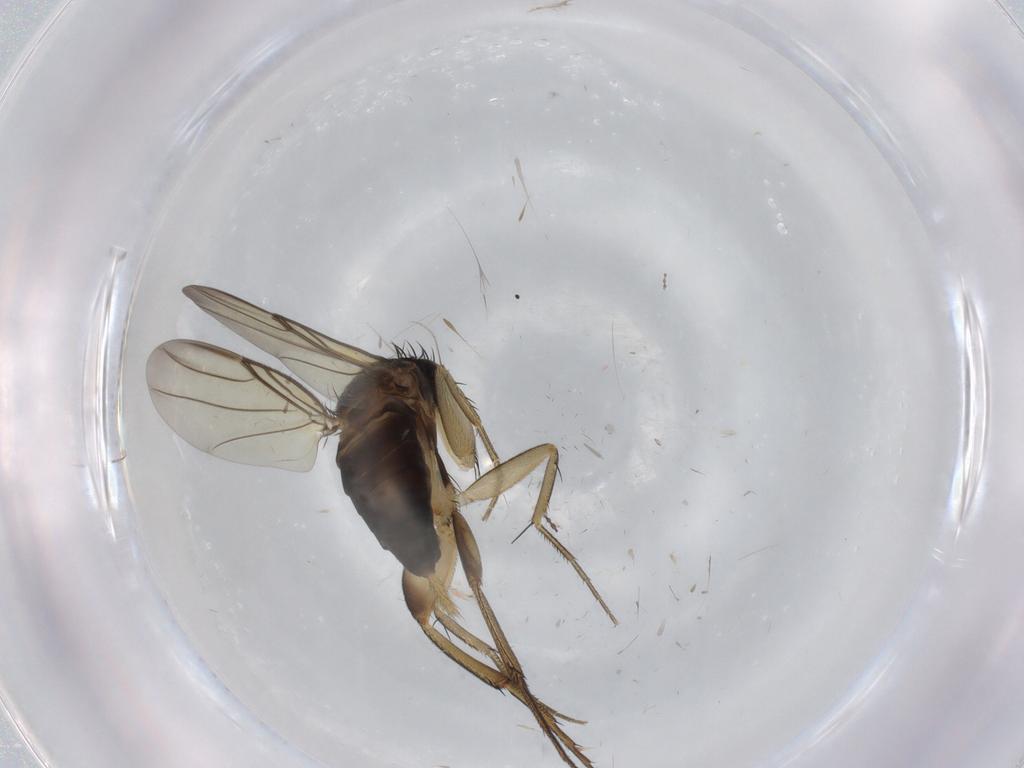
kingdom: Animalia
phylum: Arthropoda
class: Insecta
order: Diptera
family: Phoridae
